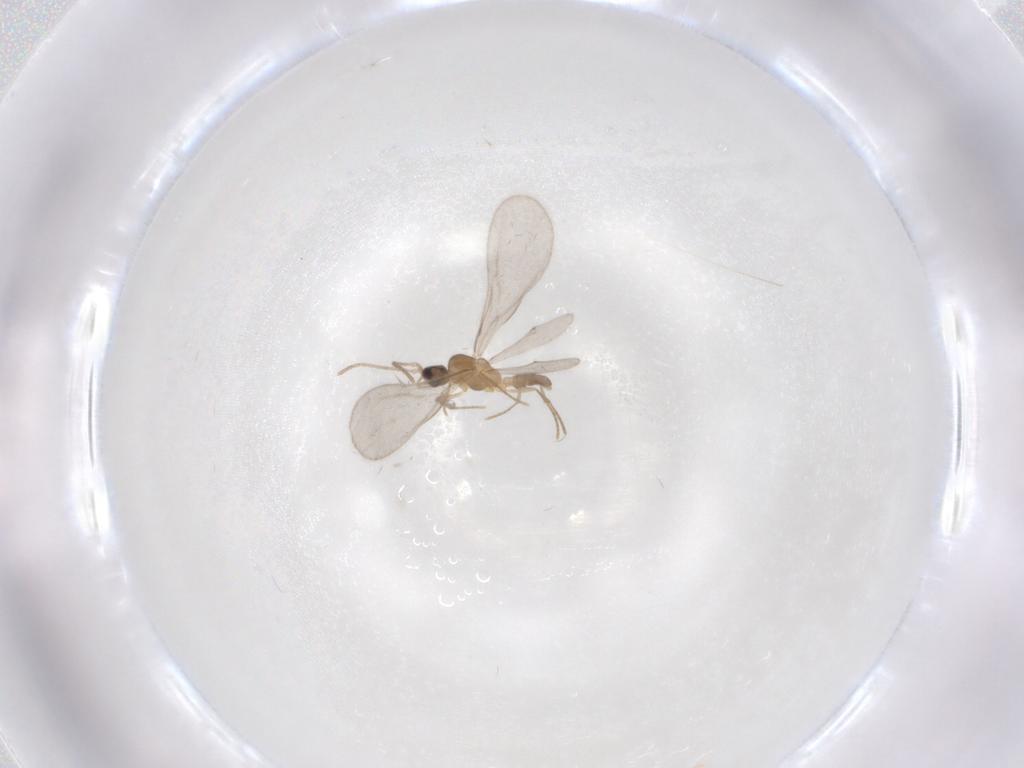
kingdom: Animalia
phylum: Arthropoda
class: Insecta
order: Hymenoptera
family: Formicidae
